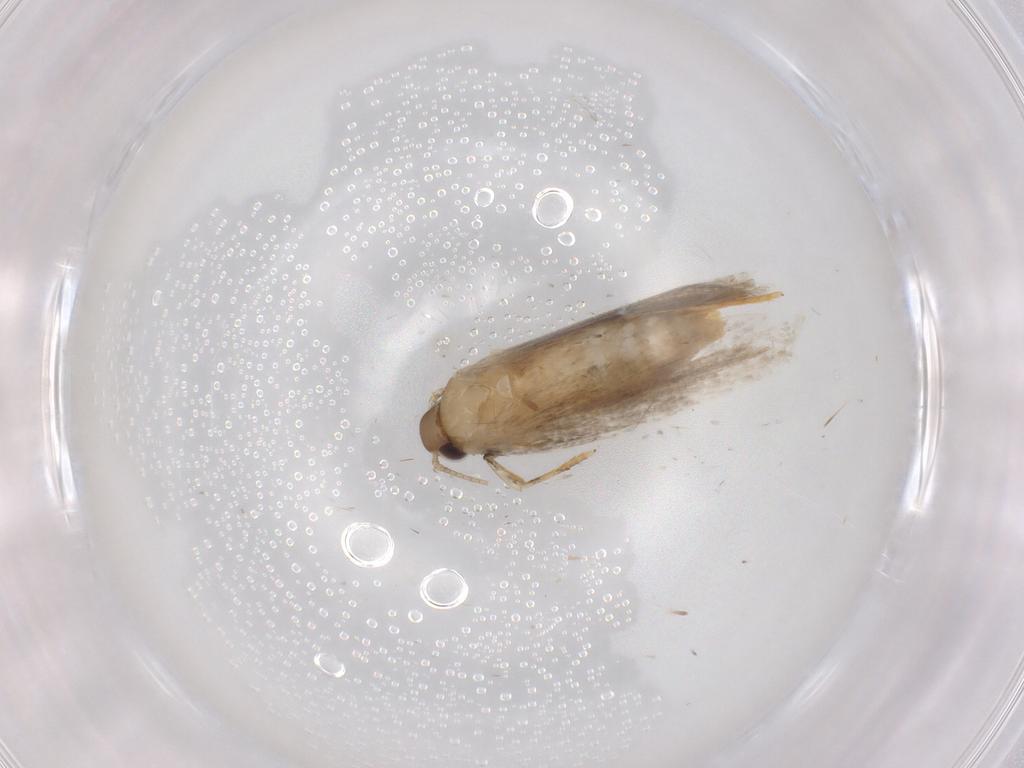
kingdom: Animalia
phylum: Arthropoda
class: Insecta
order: Lepidoptera
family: Autostichidae
